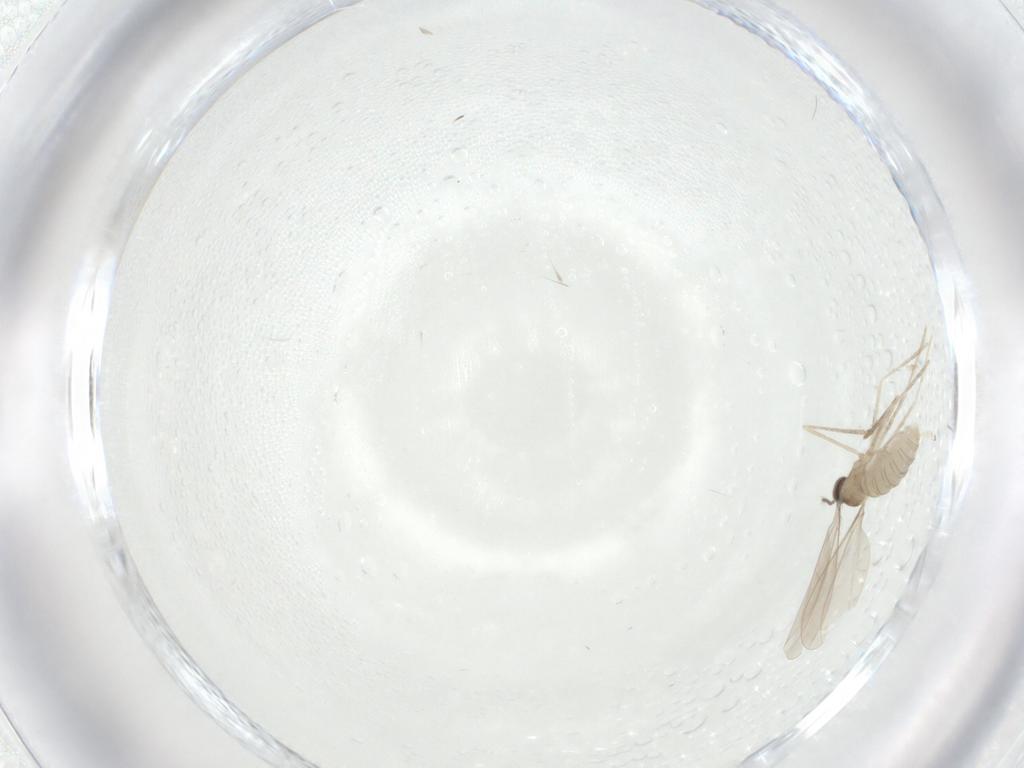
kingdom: Animalia
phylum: Arthropoda
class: Insecta
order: Diptera
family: Cecidomyiidae
